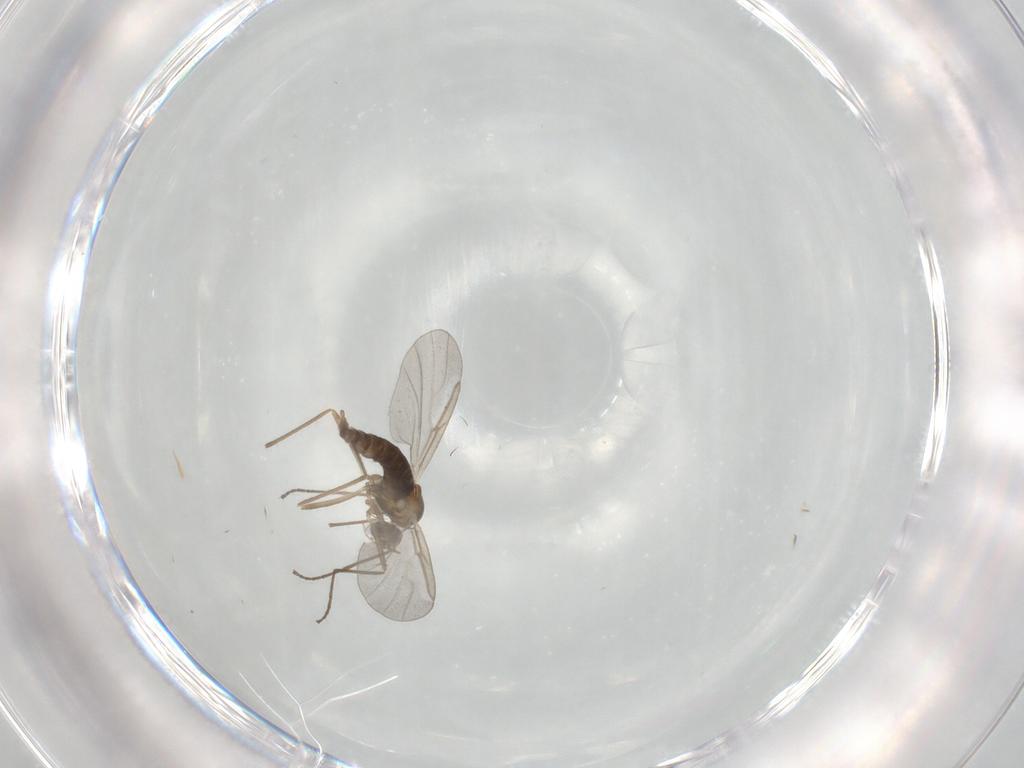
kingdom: Animalia
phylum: Arthropoda
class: Insecta
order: Diptera
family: Cecidomyiidae
